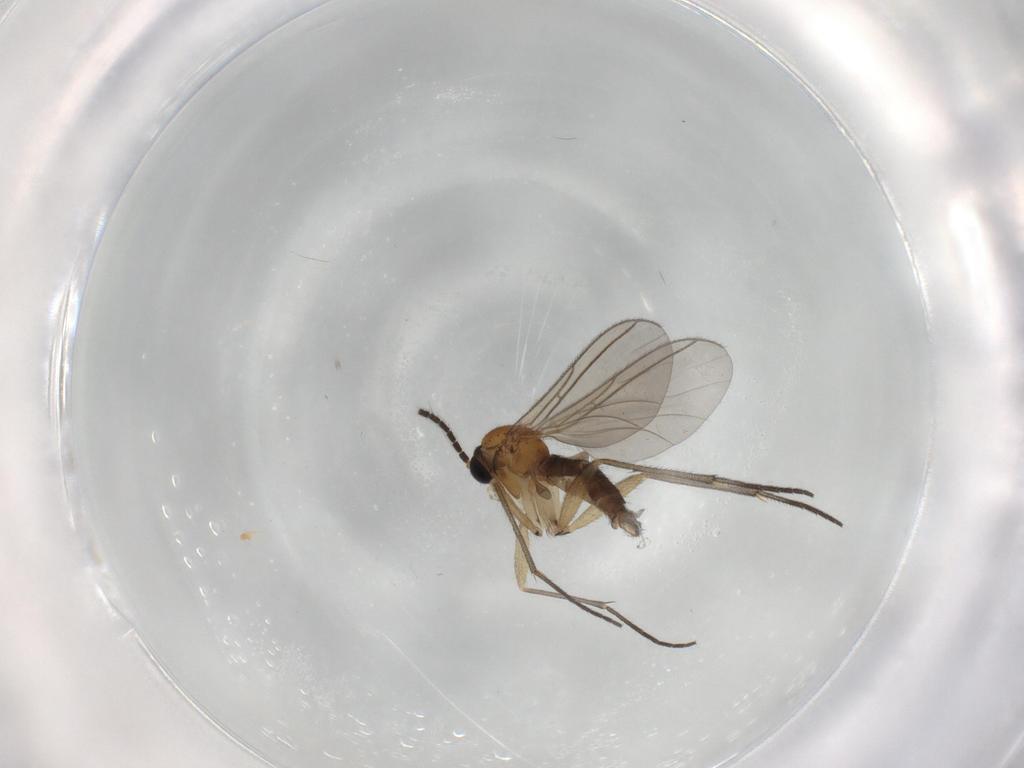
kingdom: Animalia
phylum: Arthropoda
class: Insecta
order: Diptera
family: Sciaridae
